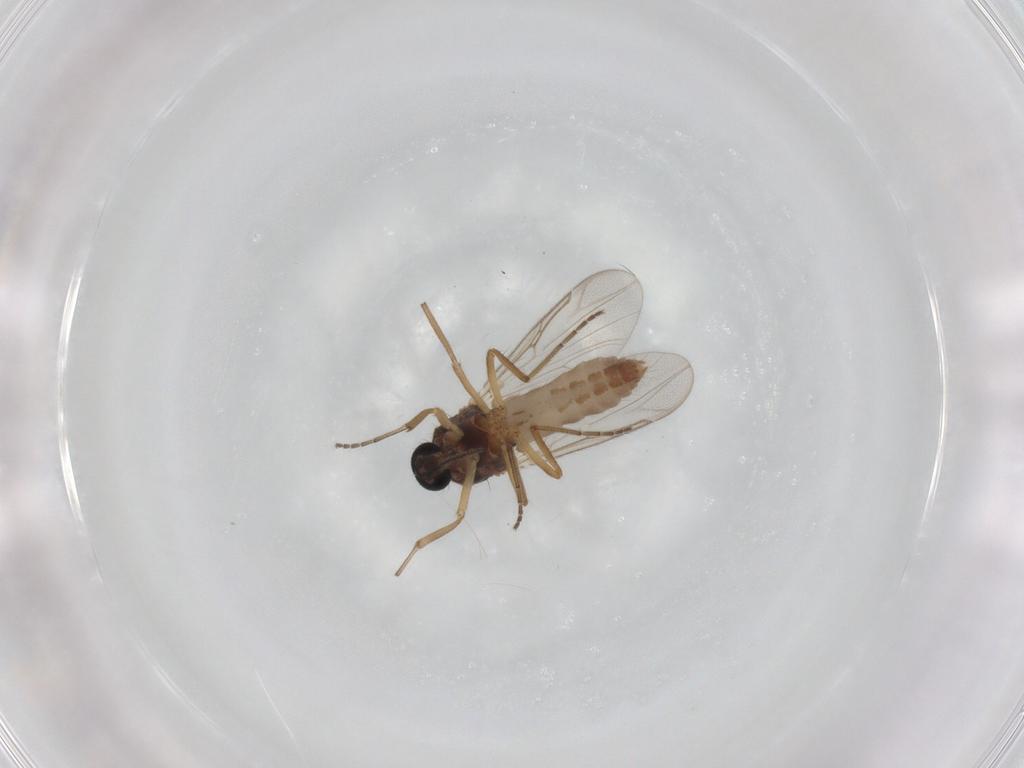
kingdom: Animalia
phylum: Arthropoda
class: Insecta
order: Diptera
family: Ceratopogonidae
